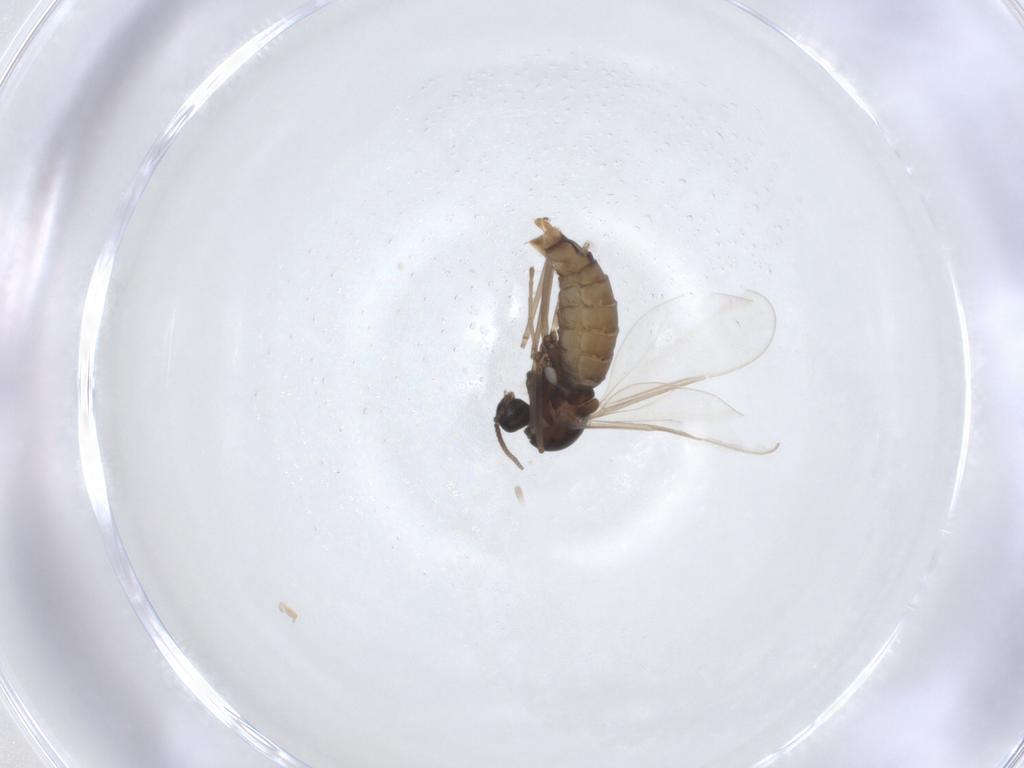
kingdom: Animalia
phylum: Arthropoda
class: Insecta
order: Diptera
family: Cecidomyiidae
